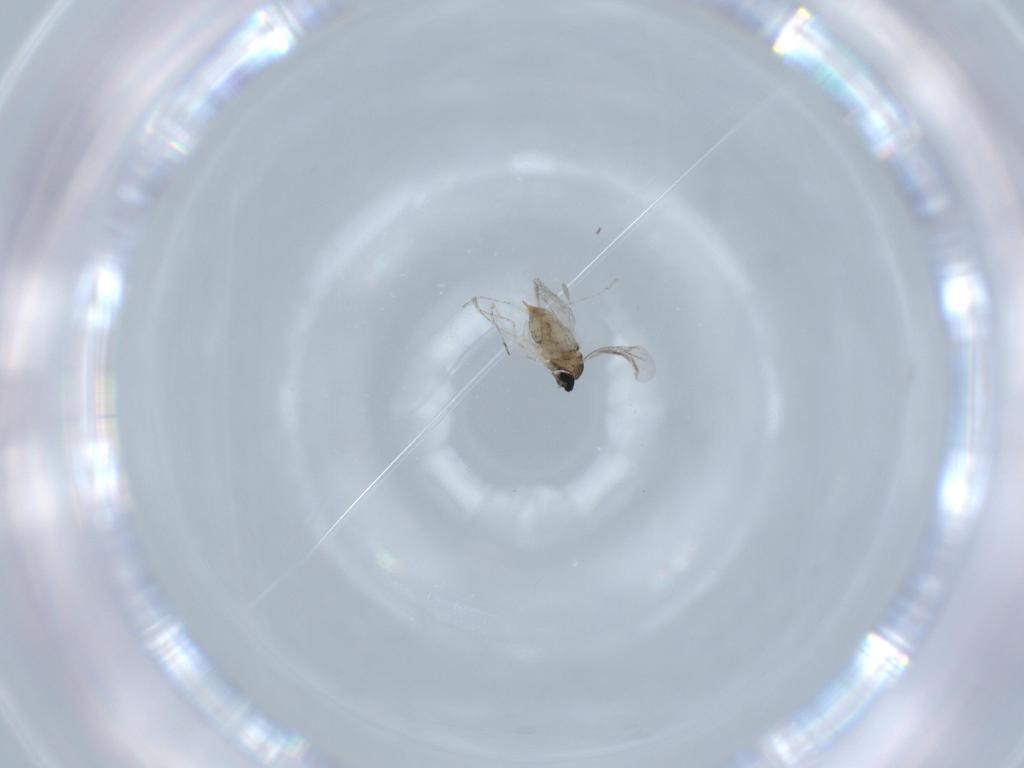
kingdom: Animalia
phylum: Arthropoda
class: Insecta
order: Diptera
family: Cecidomyiidae
